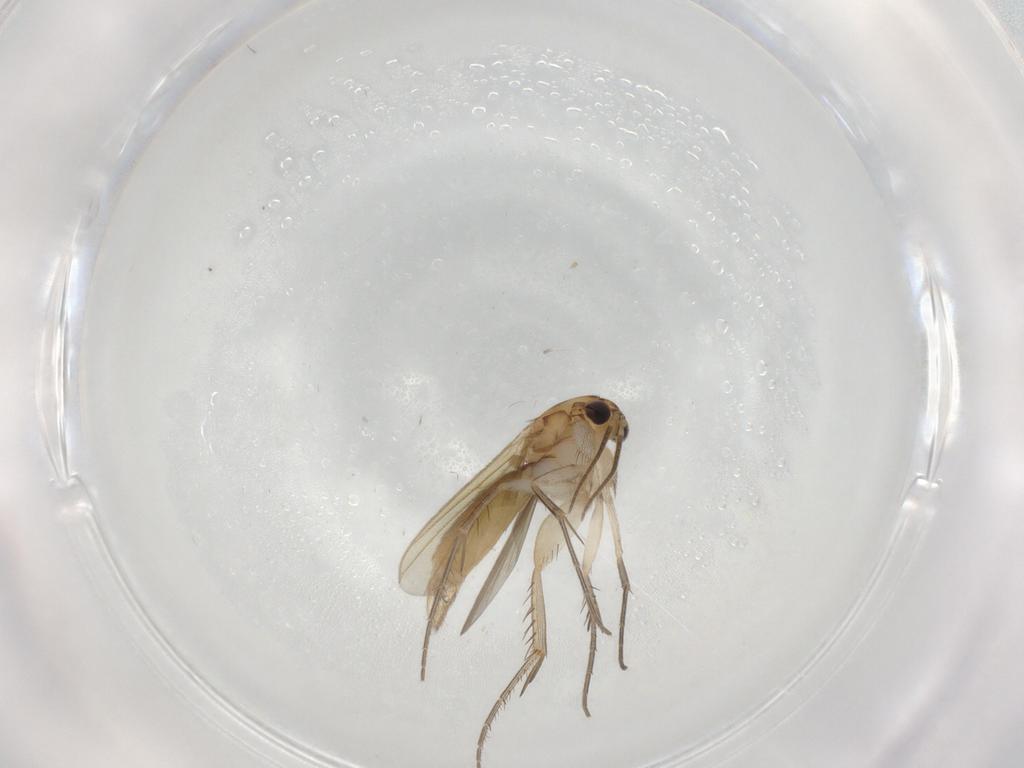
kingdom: Animalia
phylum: Arthropoda
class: Insecta
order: Diptera
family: Mycetophilidae
